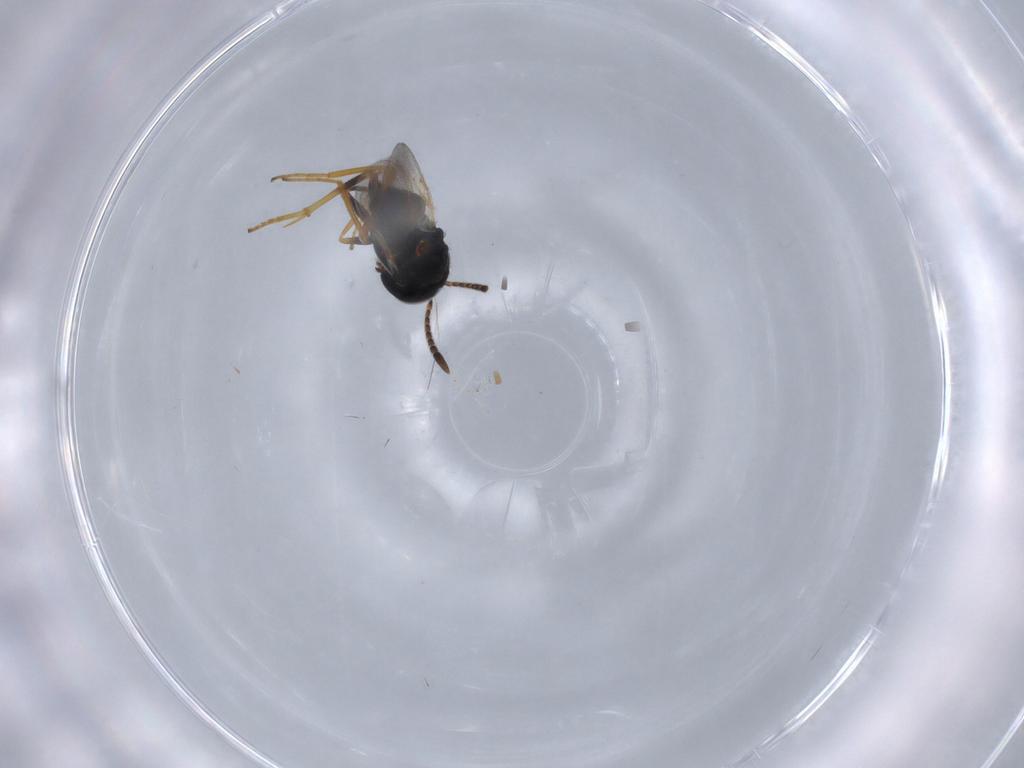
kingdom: Animalia
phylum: Arthropoda
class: Insecta
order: Hymenoptera
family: Encyrtidae
